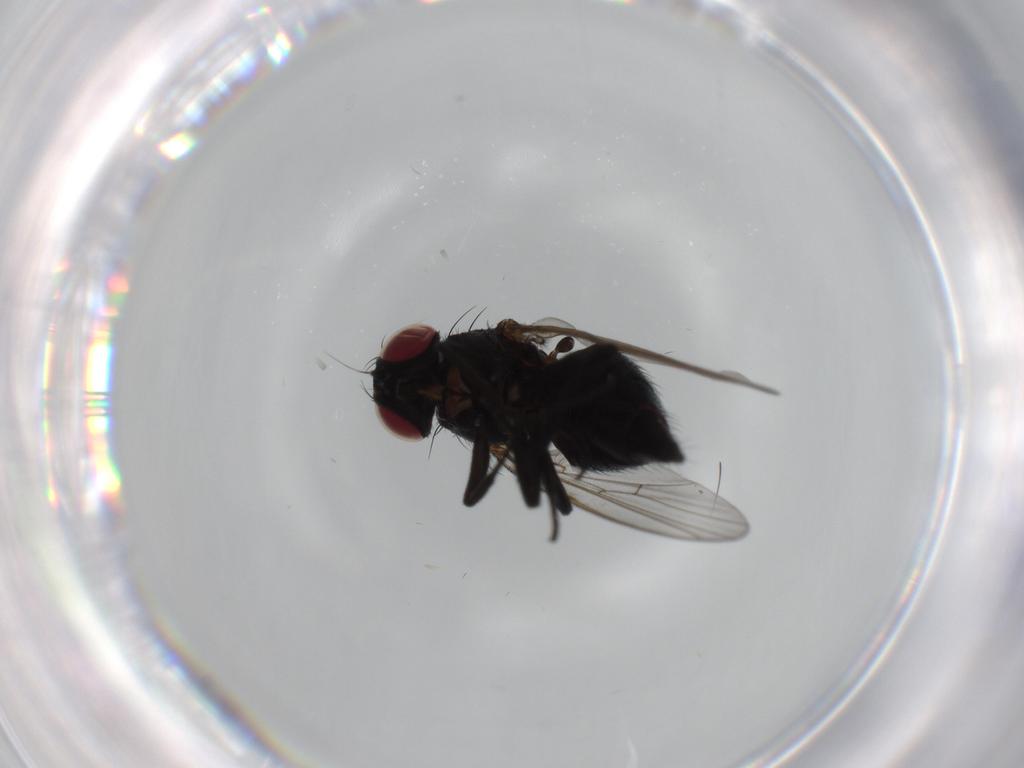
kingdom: Animalia
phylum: Arthropoda
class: Insecta
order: Diptera
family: Agromyzidae
